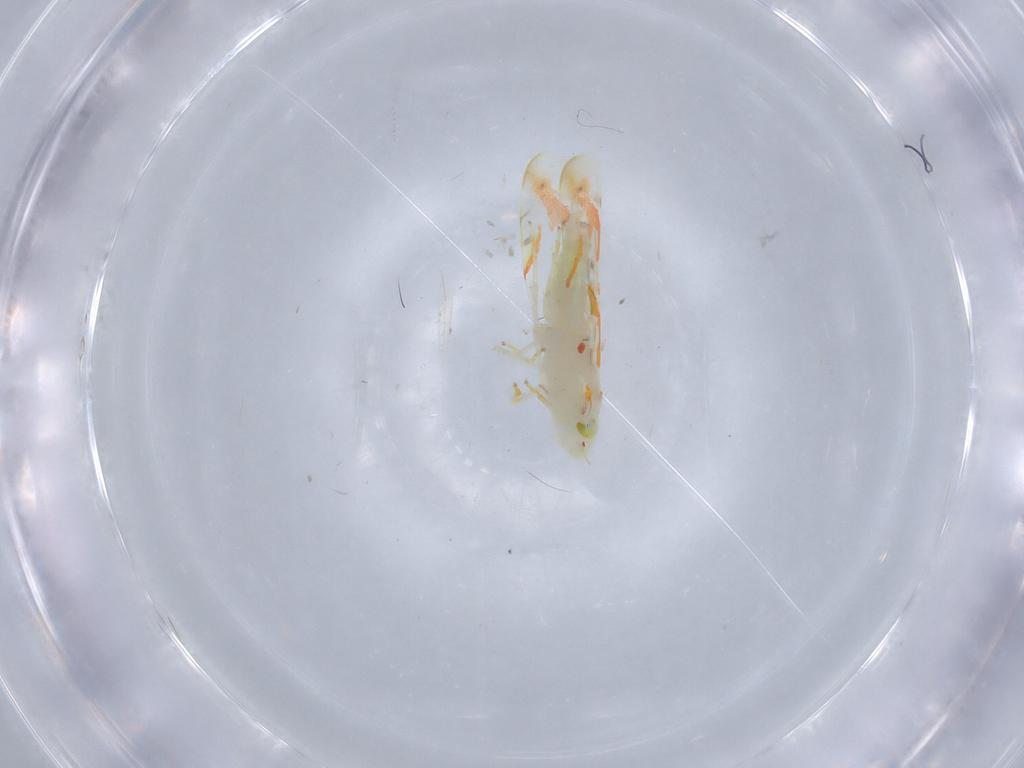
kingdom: Animalia
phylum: Arthropoda
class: Insecta
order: Hemiptera
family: Cicadellidae
